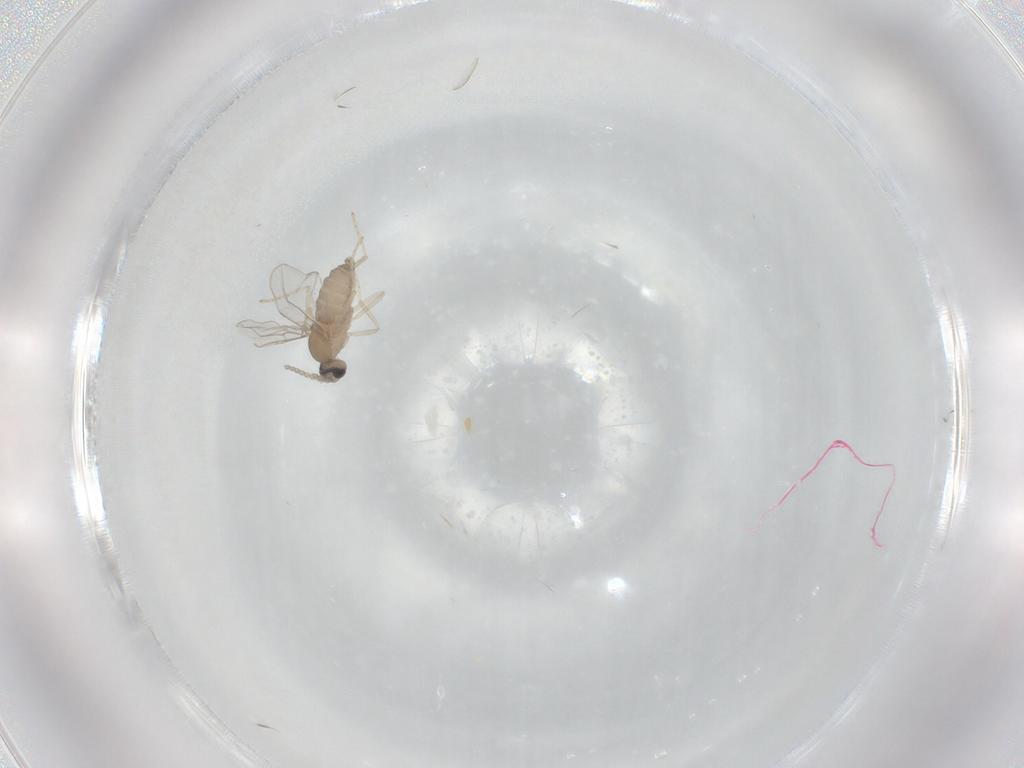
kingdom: Animalia
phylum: Arthropoda
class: Insecta
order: Diptera
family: Cecidomyiidae
